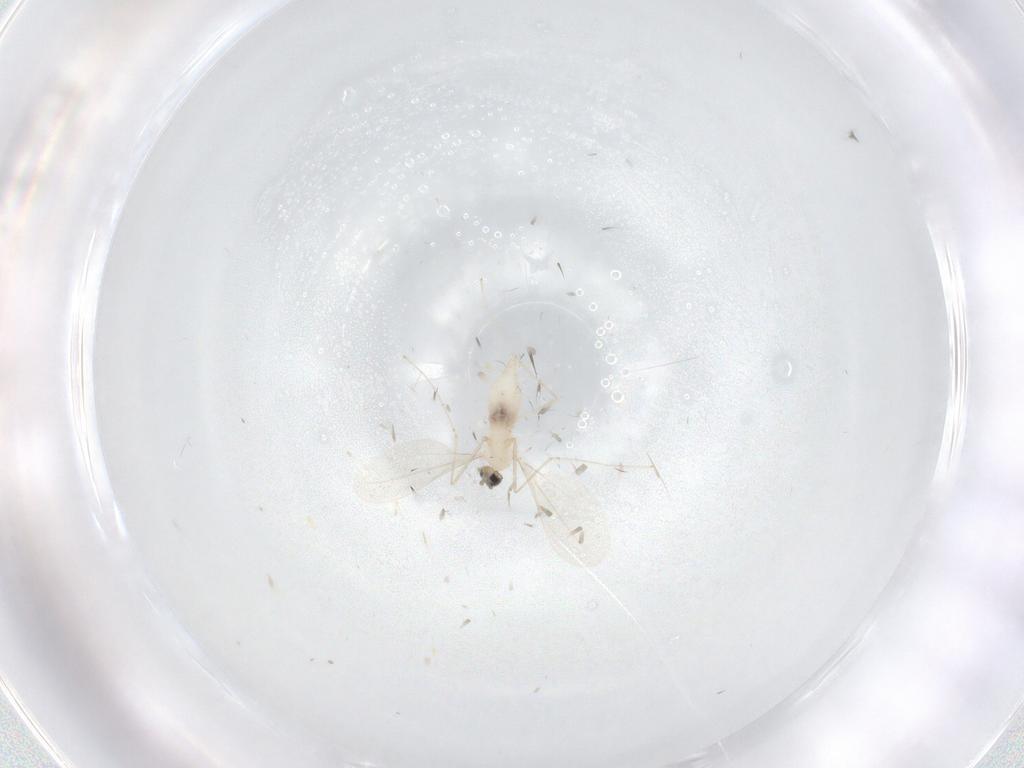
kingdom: Animalia
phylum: Arthropoda
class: Insecta
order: Diptera
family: Cecidomyiidae
